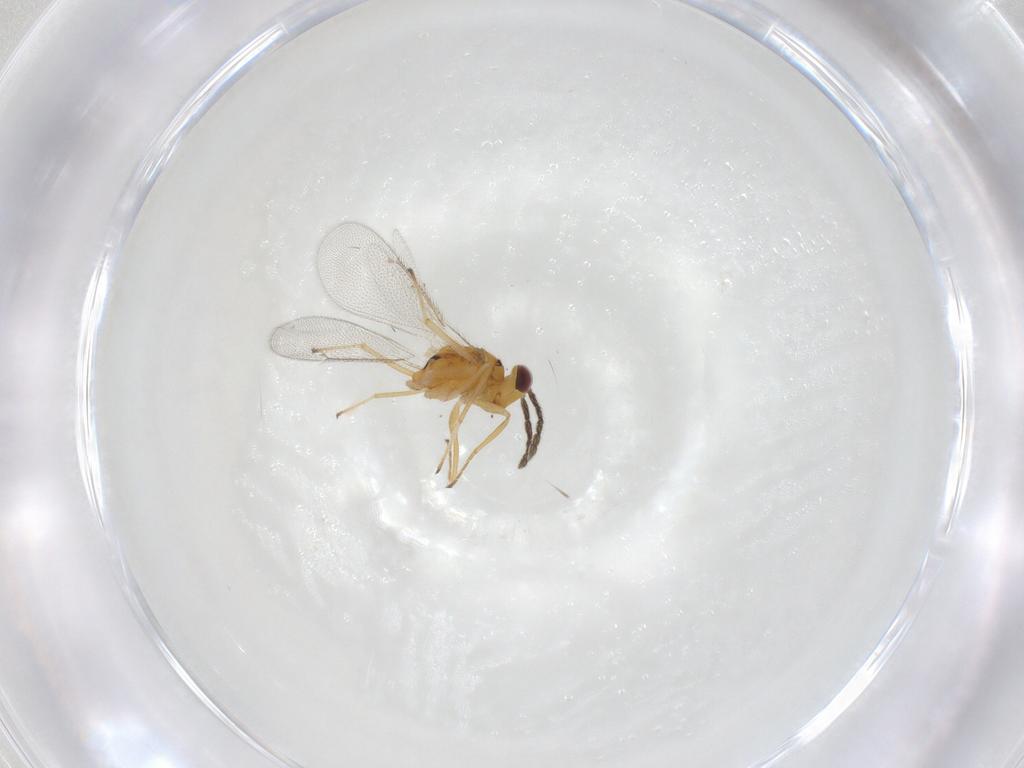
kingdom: Animalia
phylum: Arthropoda
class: Insecta
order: Hymenoptera
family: Eulophidae
